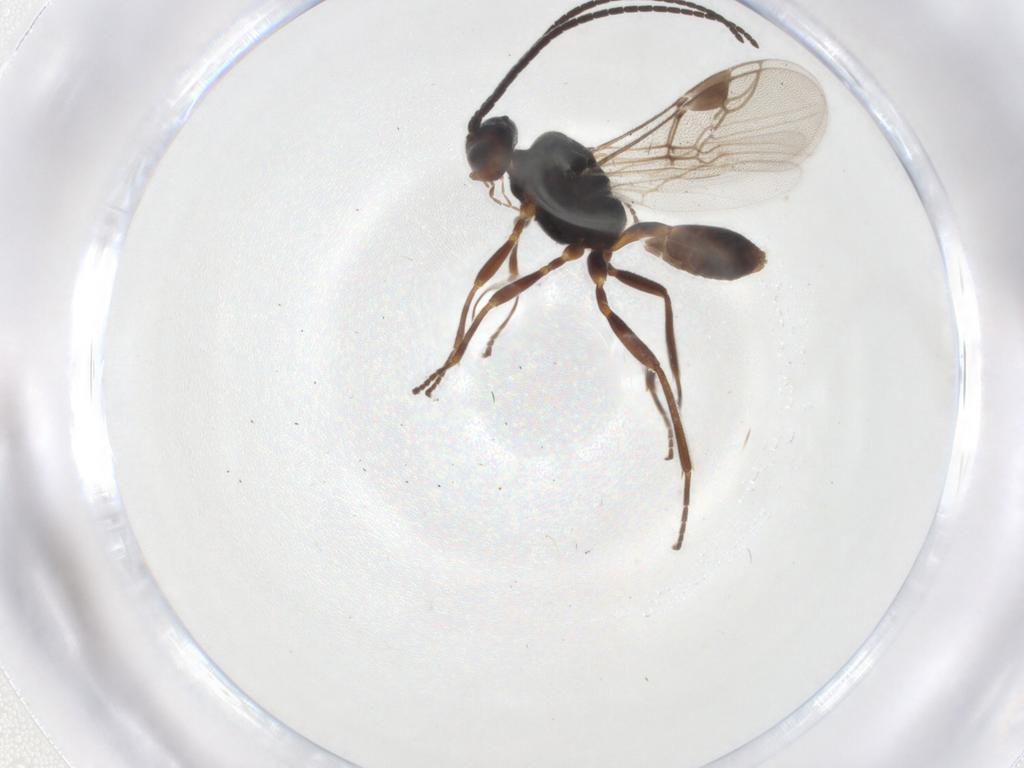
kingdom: Animalia
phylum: Arthropoda
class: Insecta
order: Hymenoptera
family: Braconidae
